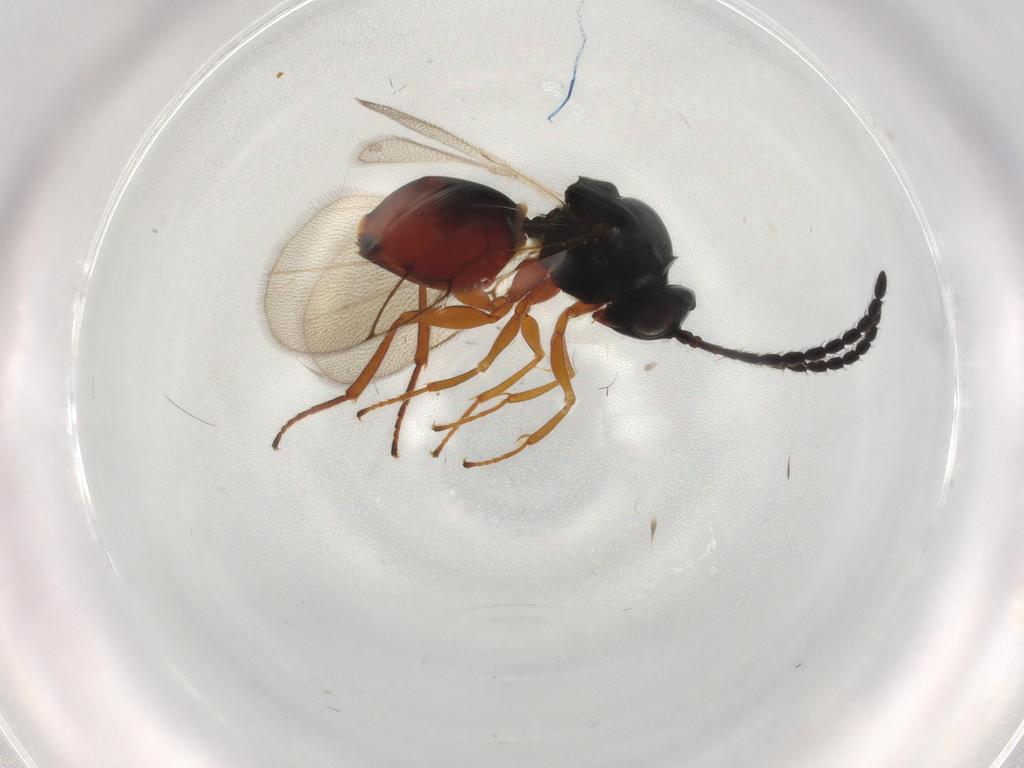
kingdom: Animalia
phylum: Arthropoda
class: Insecta
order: Hymenoptera
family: Figitidae
